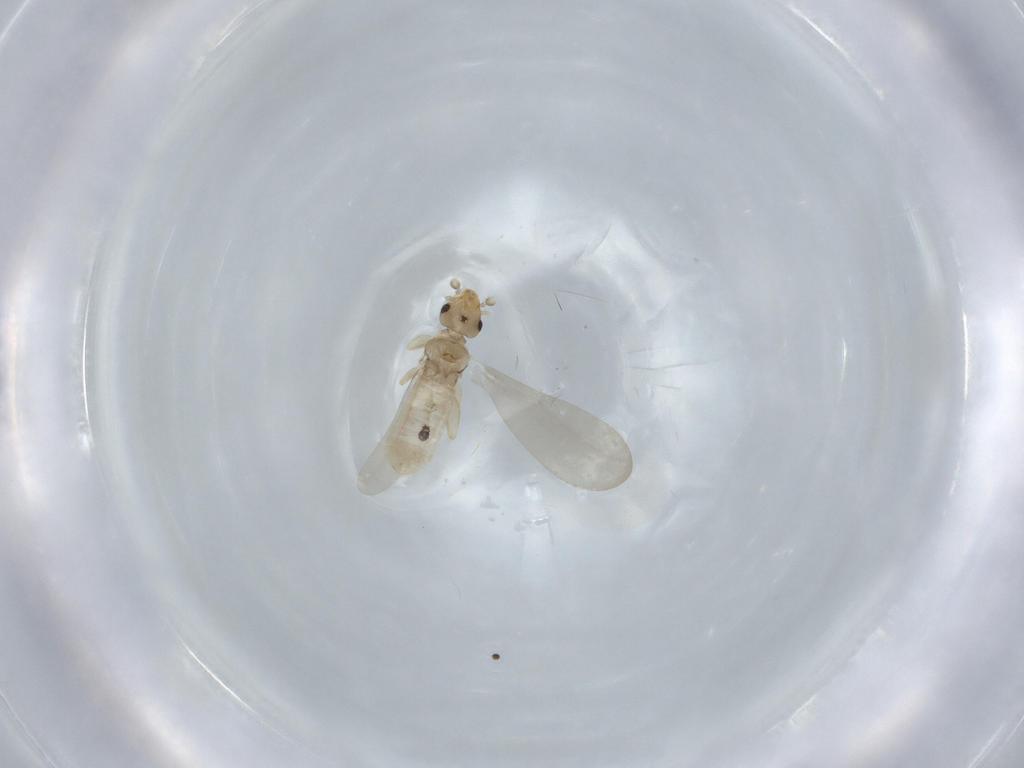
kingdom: Animalia
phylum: Arthropoda
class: Insecta
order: Psocodea
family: Liposcelididae
